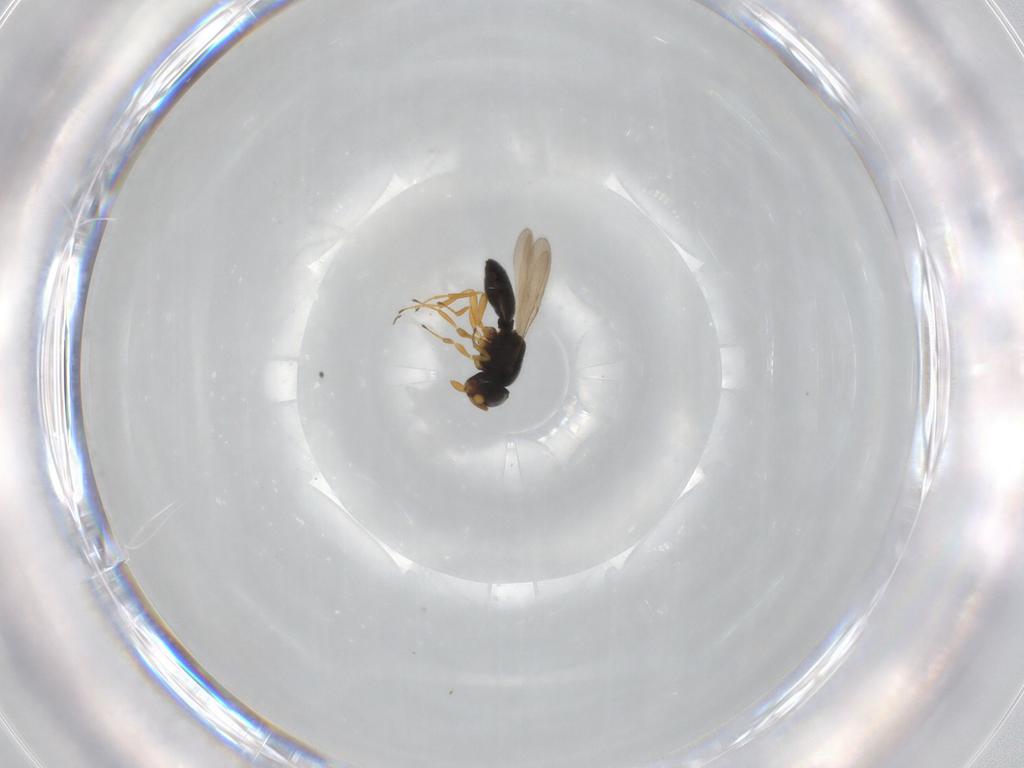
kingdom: Animalia
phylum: Arthropoda
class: Insecta
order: Hymenoptera
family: Scelionidae
